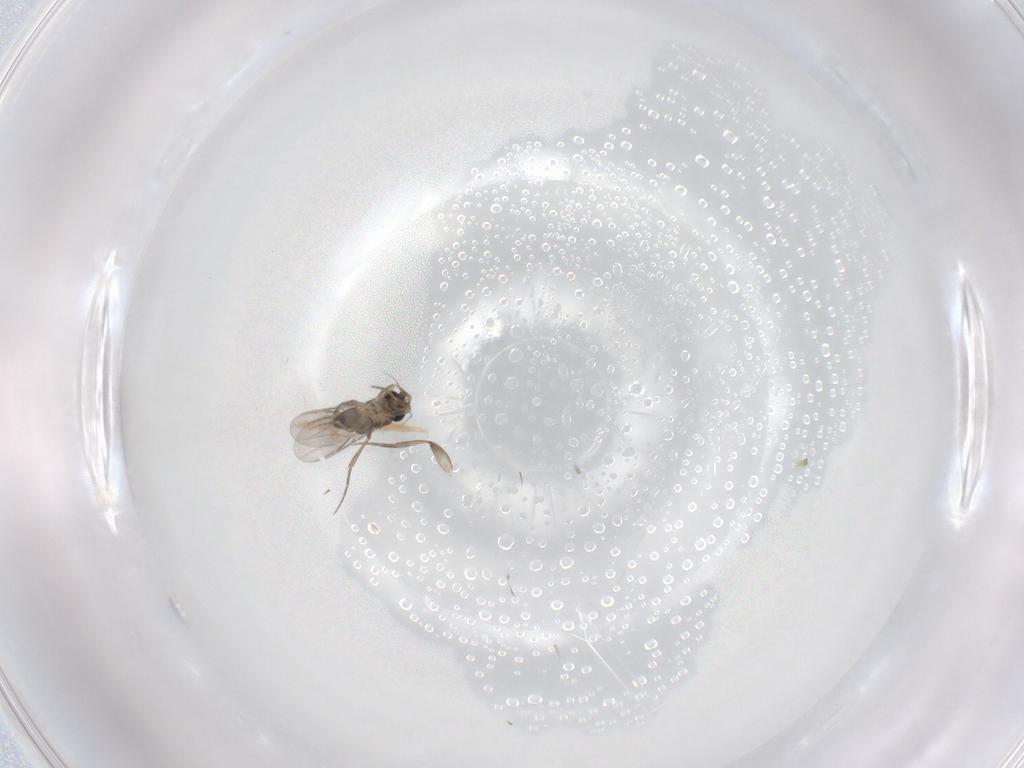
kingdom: Animalia
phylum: Arthropoda
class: Insecta
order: Diptera
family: Phoridae
